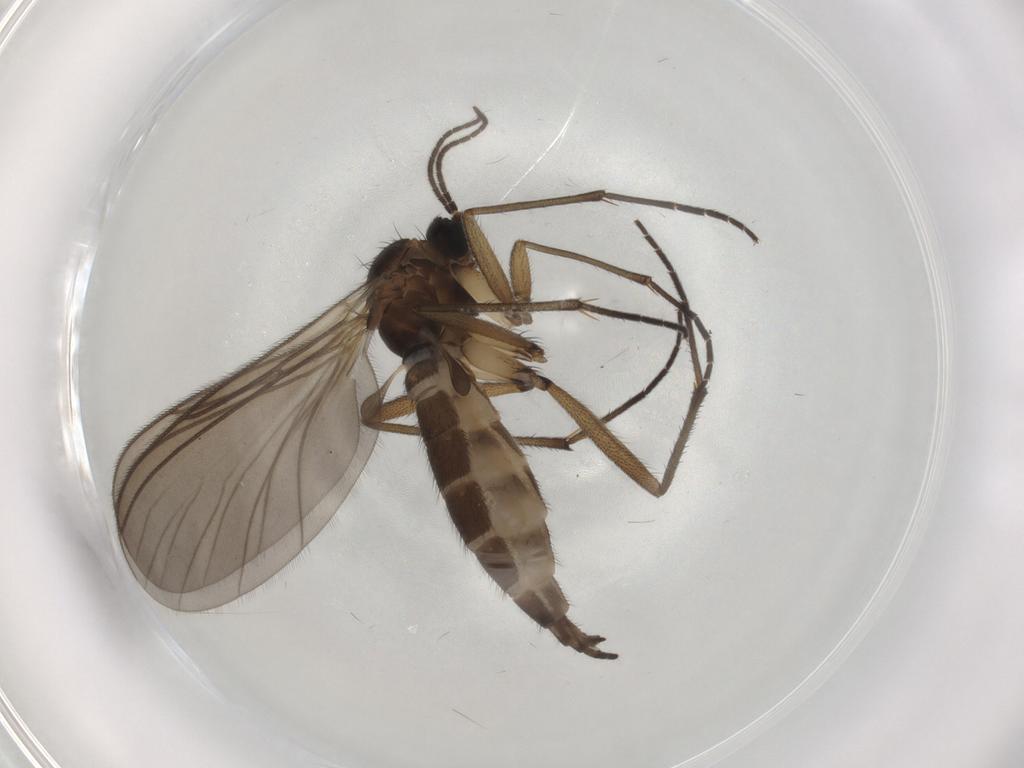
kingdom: Animalia
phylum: Arthropoda
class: Insecta
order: Diptera
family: Sciaridae
